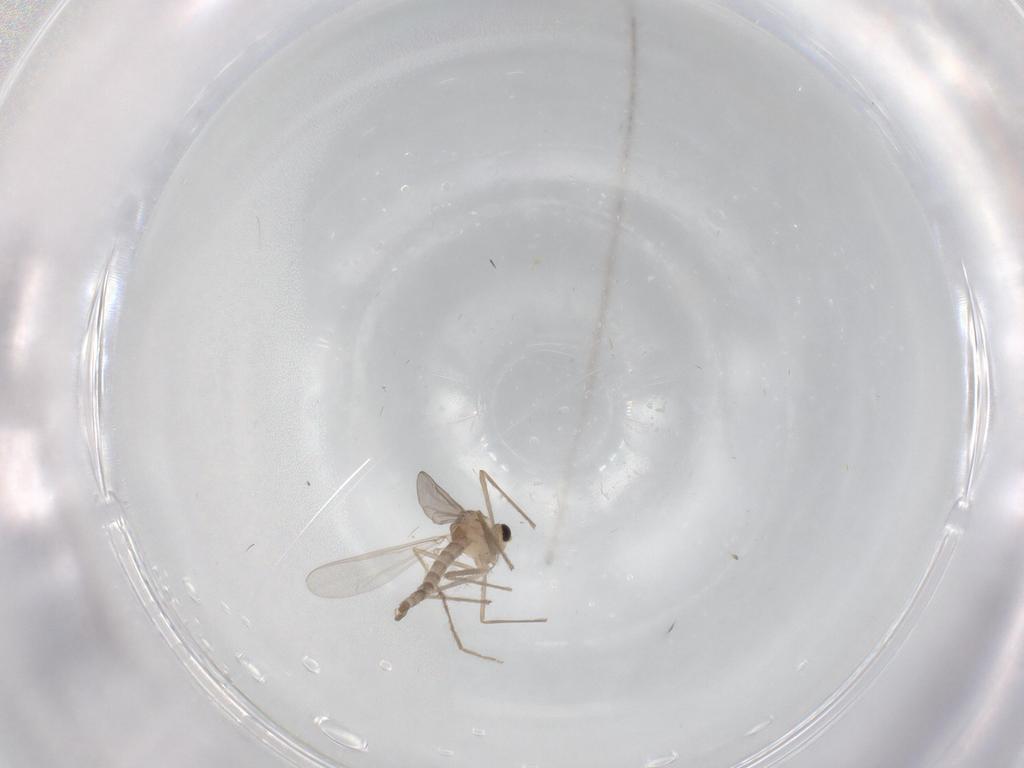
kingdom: Animalia
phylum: Arthropoda
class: Insecta
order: Diptera
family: Chironomidae
